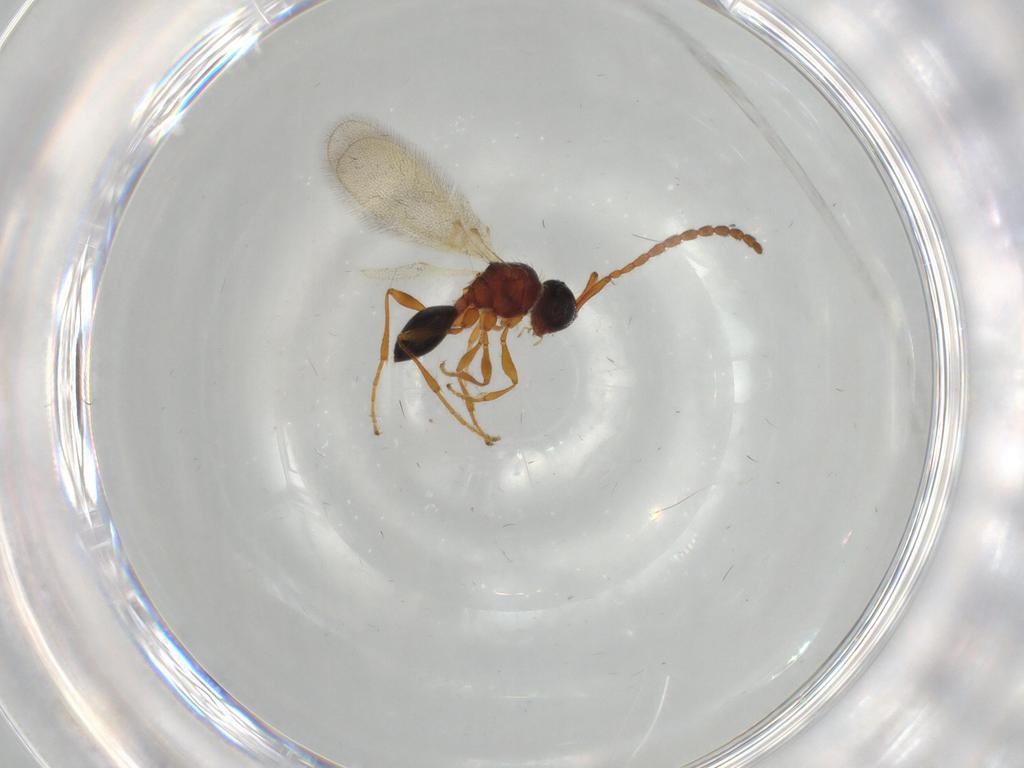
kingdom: Animalia
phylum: Arthropoda
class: Insecta
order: Hymenoptera
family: Diapriidae
